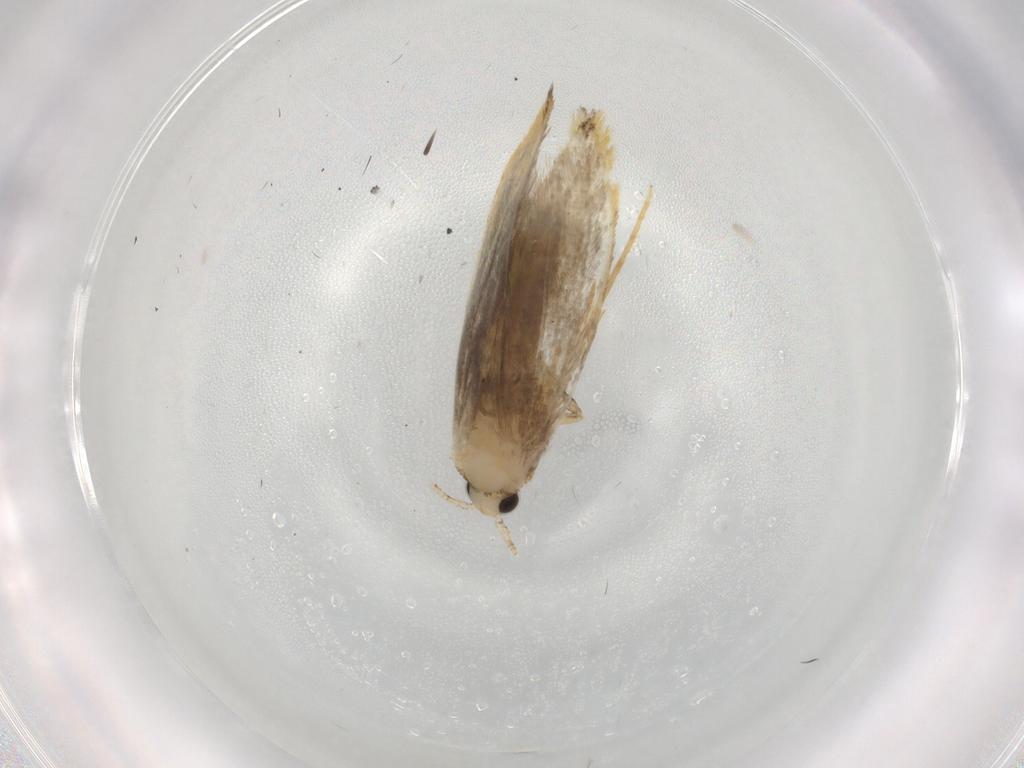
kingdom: Animalia
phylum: Arthropoda
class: Insecta
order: Lepidoptera
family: Tineidae
